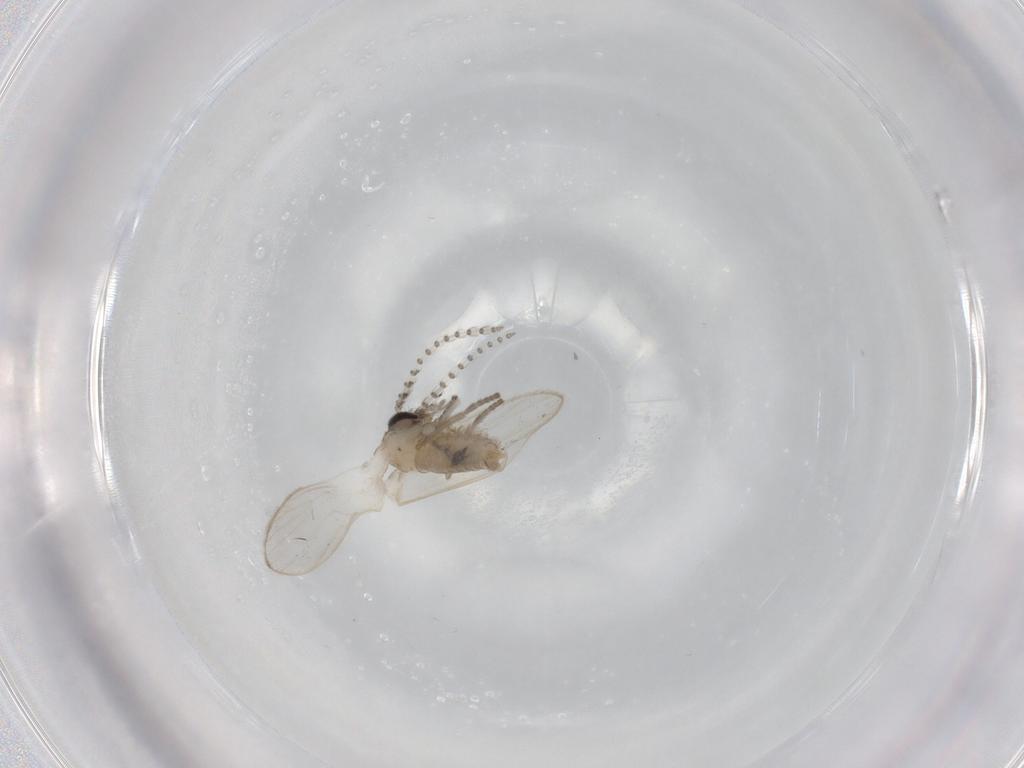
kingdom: Animalia
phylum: Arthropoda
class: Insecta
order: Diptera
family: Psychodidae
